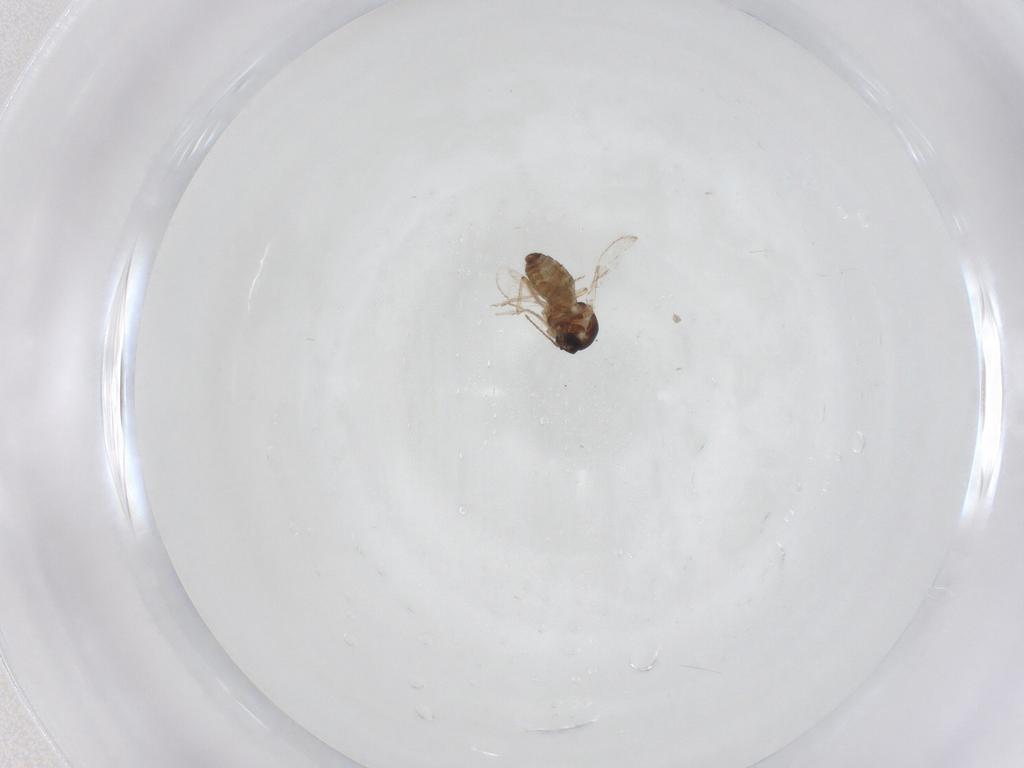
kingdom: Animalia
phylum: Arthropoda
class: Insecta
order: Diptera
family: Ceratopogonidae
